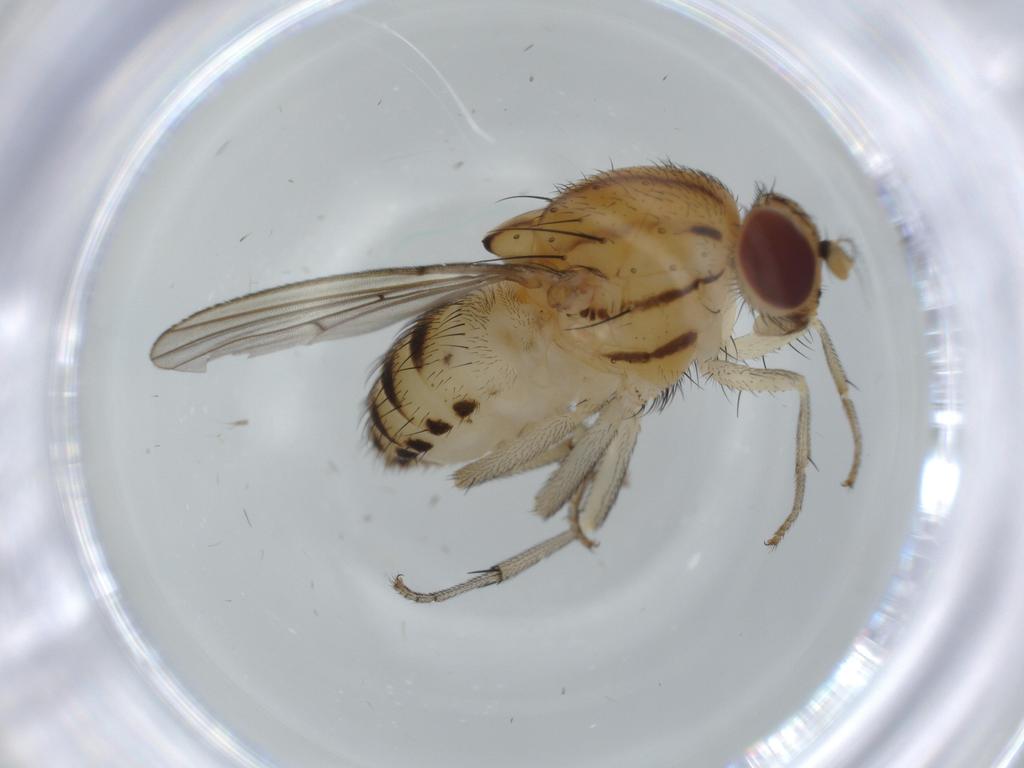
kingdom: Animalia
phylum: Arthropoda
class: Insecta
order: Diptera
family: Lauxaniidae
